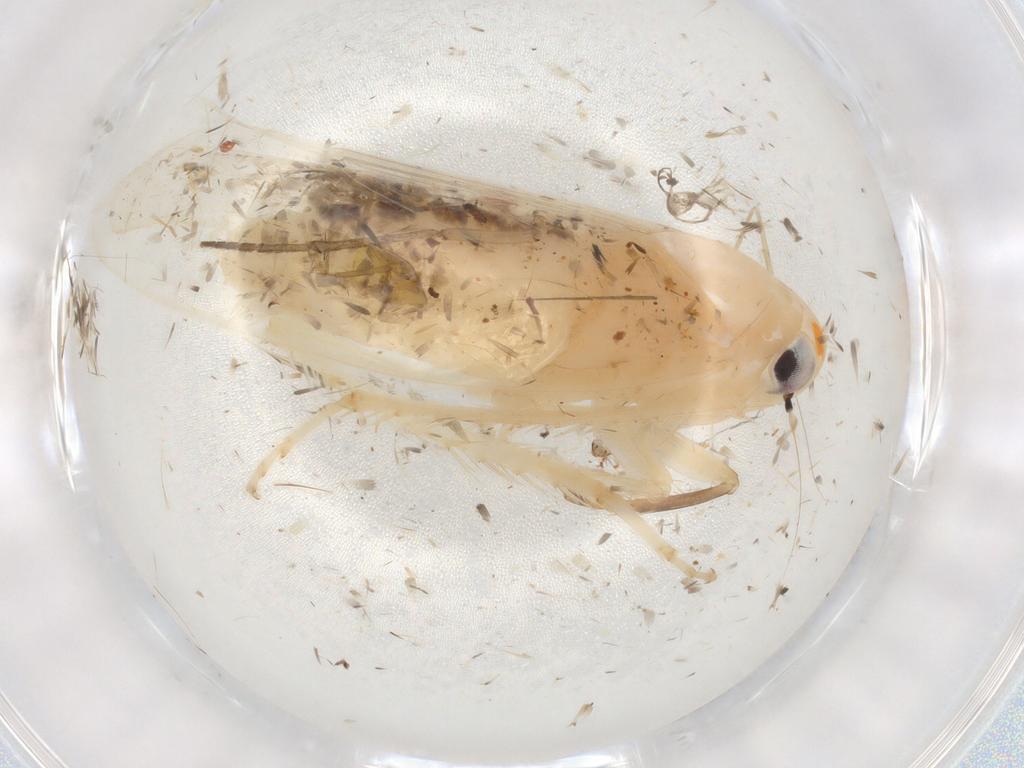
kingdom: Animalia
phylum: Arthropoda
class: Insecta
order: Hemiptera
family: Cicadellidae
